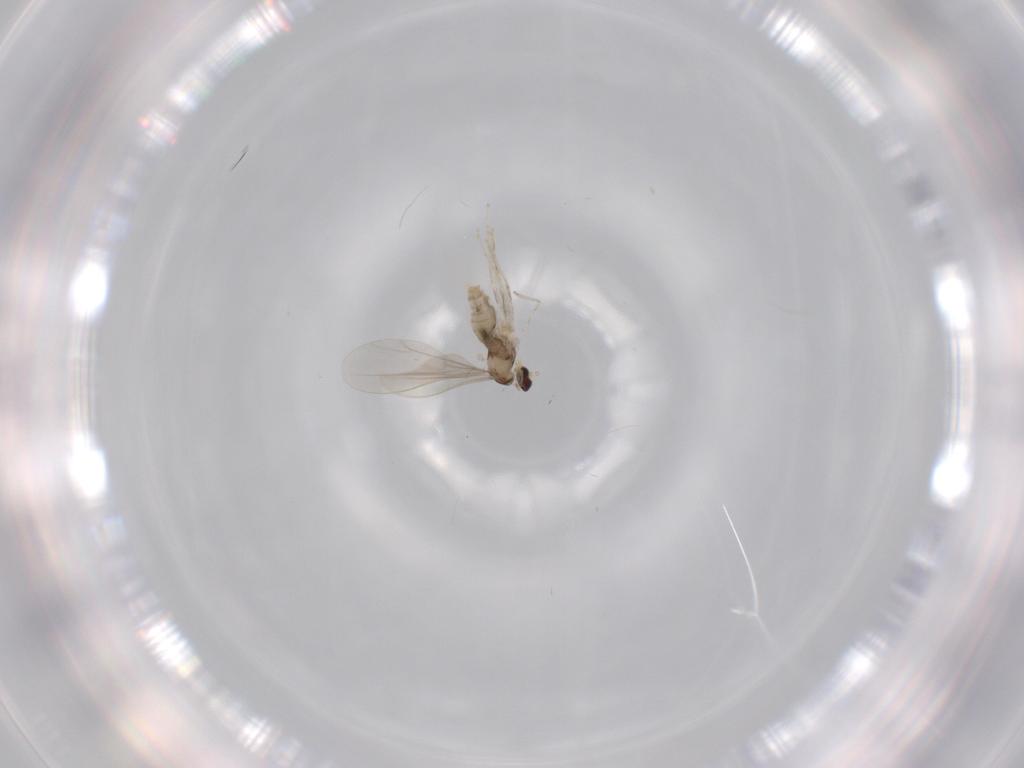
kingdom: Animalia
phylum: Arthropoda
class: Insecta
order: Diptera
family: Cecidomyiidae
